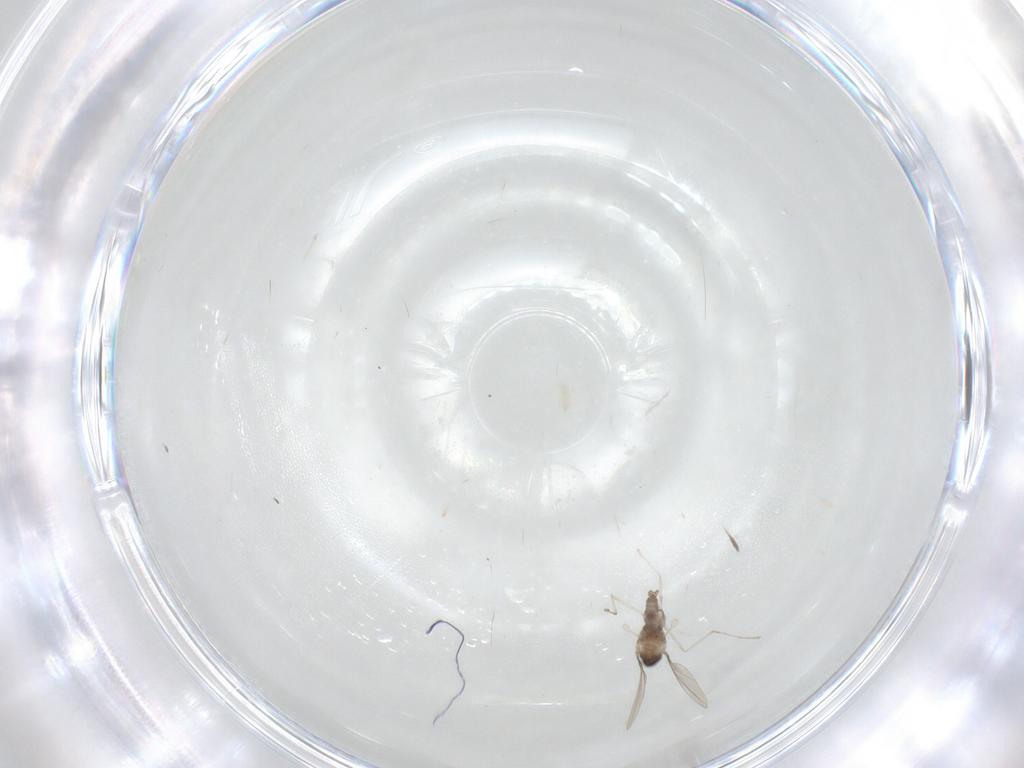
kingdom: Animalia
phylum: Arthropoda
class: Insecta
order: Diptera
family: Cecidomyiidae
